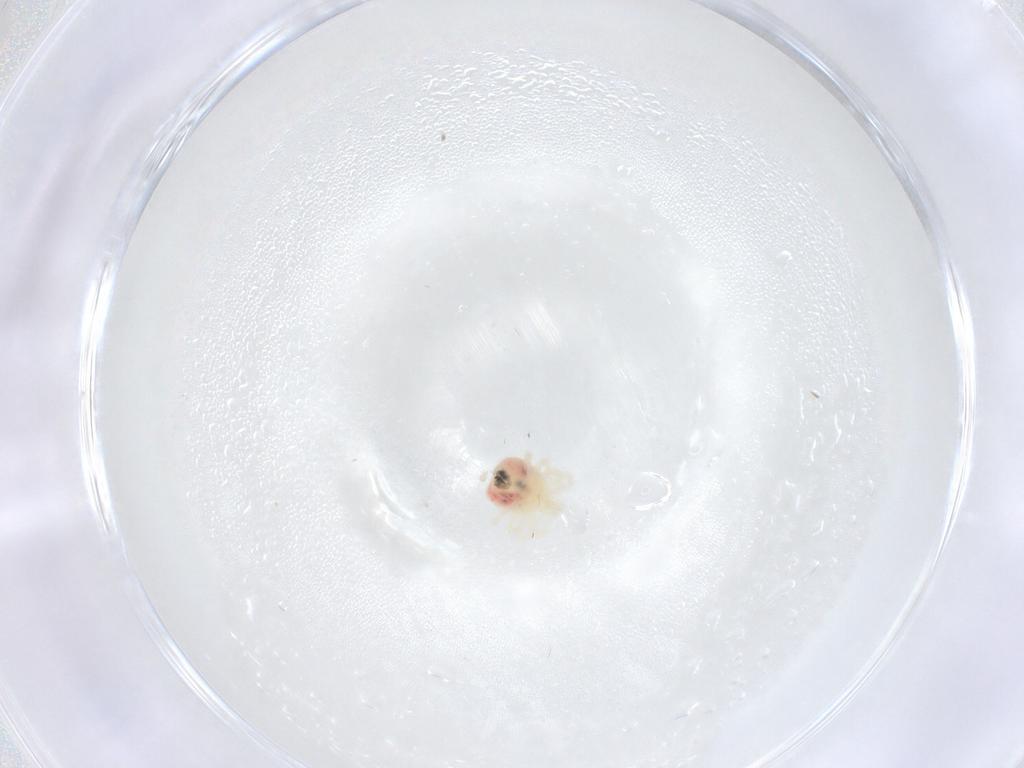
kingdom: Animalia
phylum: Arthropoda
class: Arachnida
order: Trombidiformes
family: Anystidae
